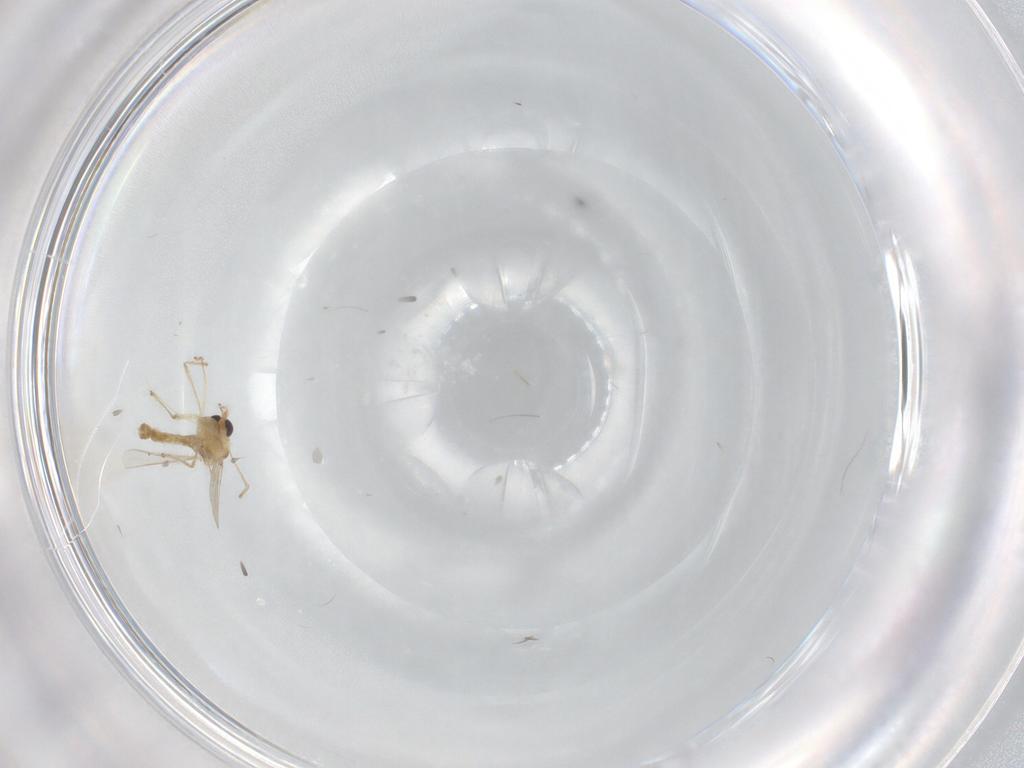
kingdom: Animalia
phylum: Arthropoda
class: Insecta
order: Diptera
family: Chironomidae
